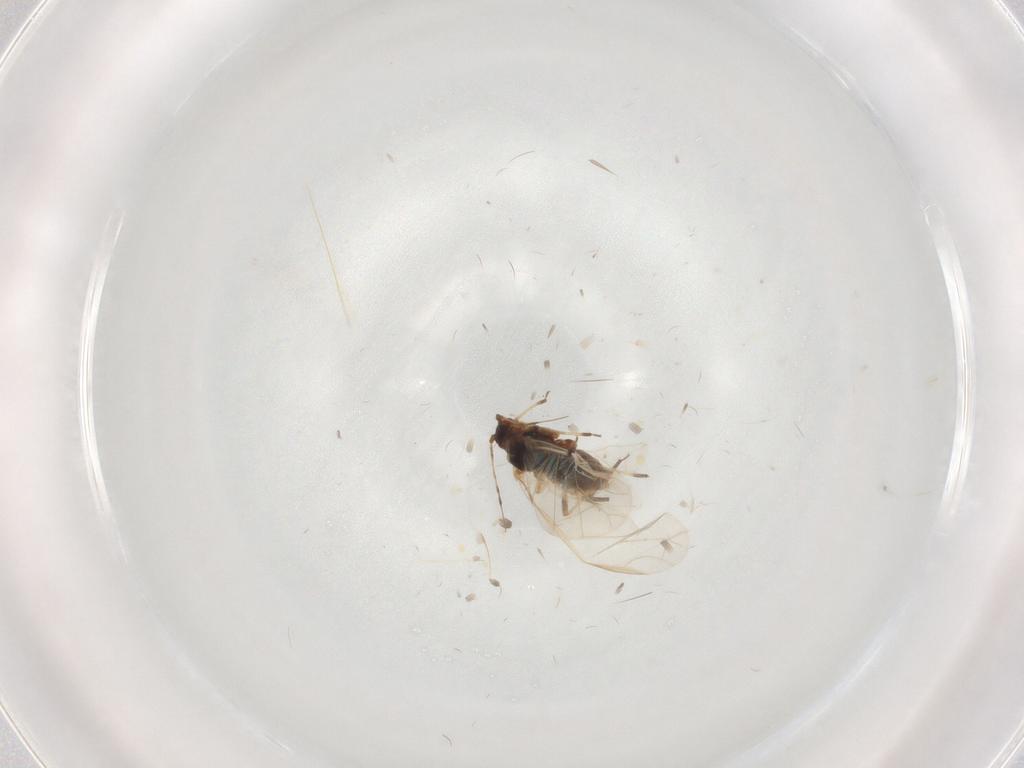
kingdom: Animalia
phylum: Arthropoda
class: Insecta
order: Hemiptera
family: Aphididae
